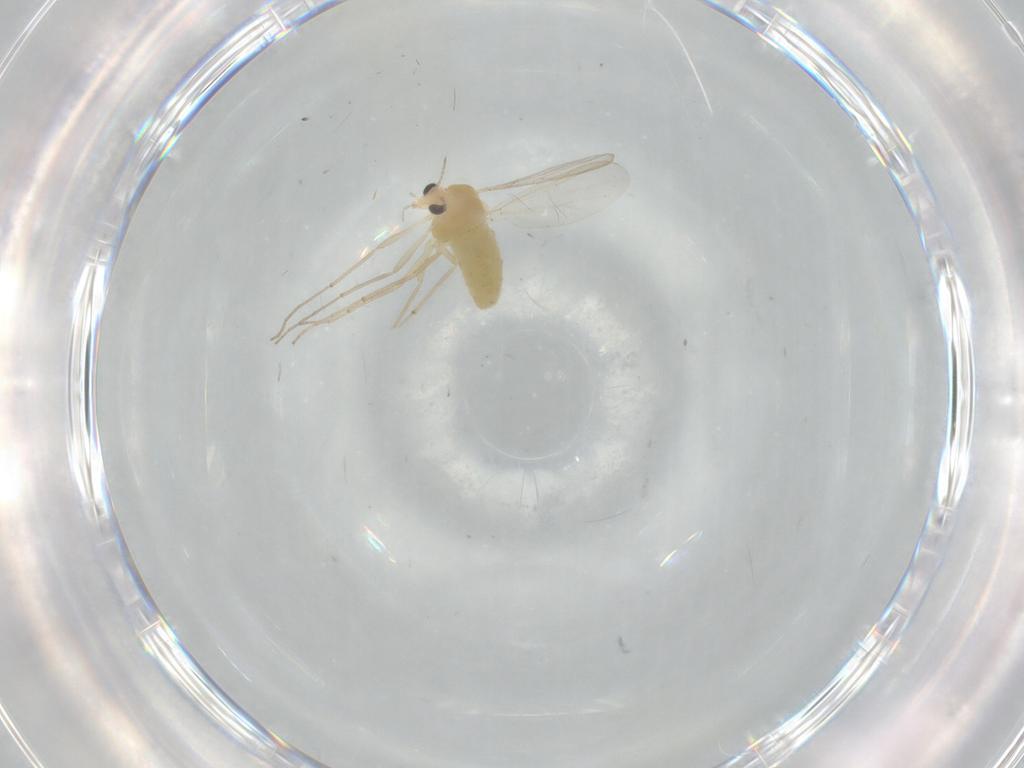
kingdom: Animalia
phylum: Arthropoda
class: Insecta
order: Diptera
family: Chironomidae
